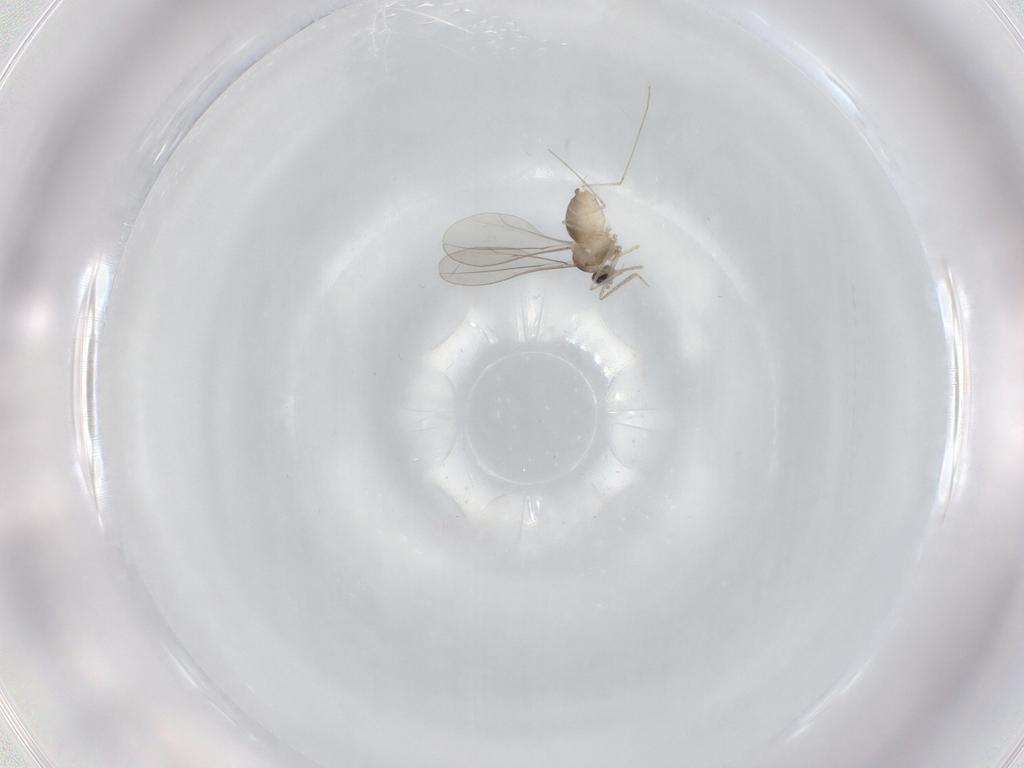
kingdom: Animalia
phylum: Arthropoda
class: Insecta
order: Diptera
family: Cecidomyiidae
